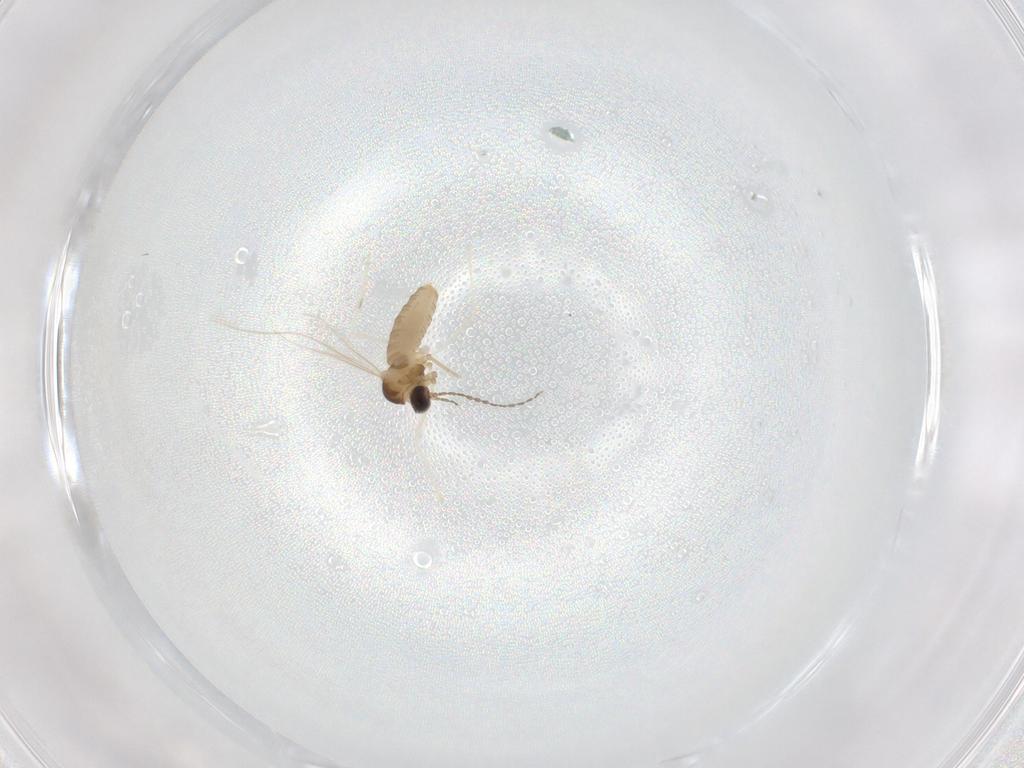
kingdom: Animalia
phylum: Arthropoda
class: Insecta
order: Diptera
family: Cecidomyiidae
